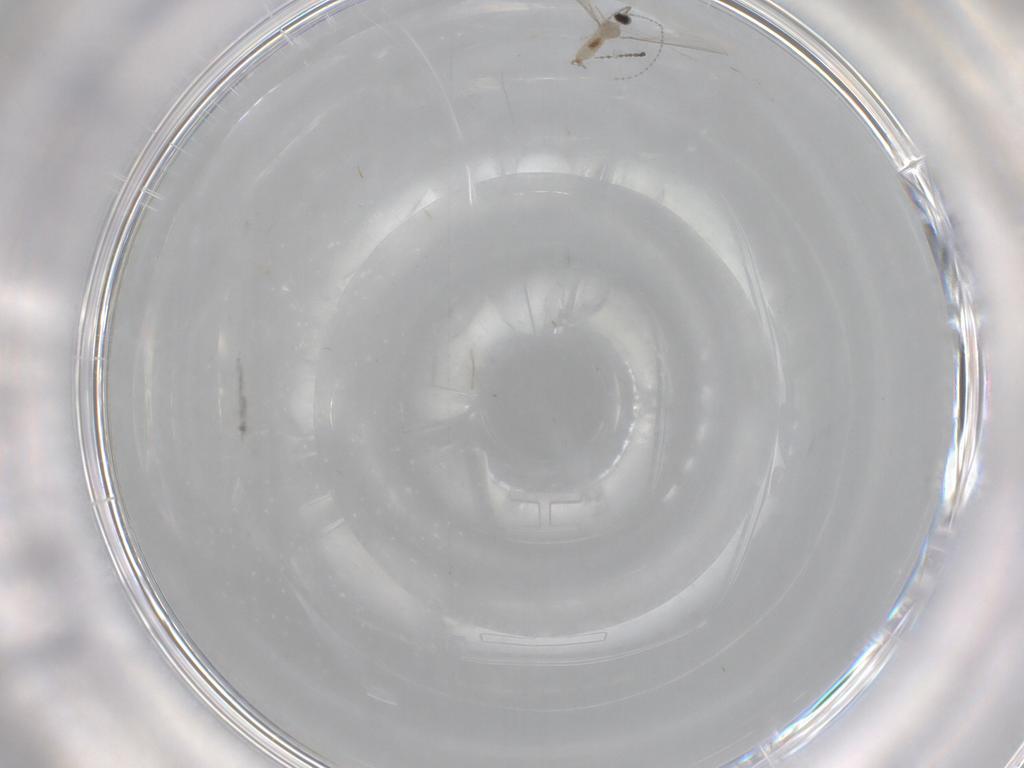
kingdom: Animalia
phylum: Arthropoda
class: Insecta
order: Diptera
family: Cecidomyiidae
